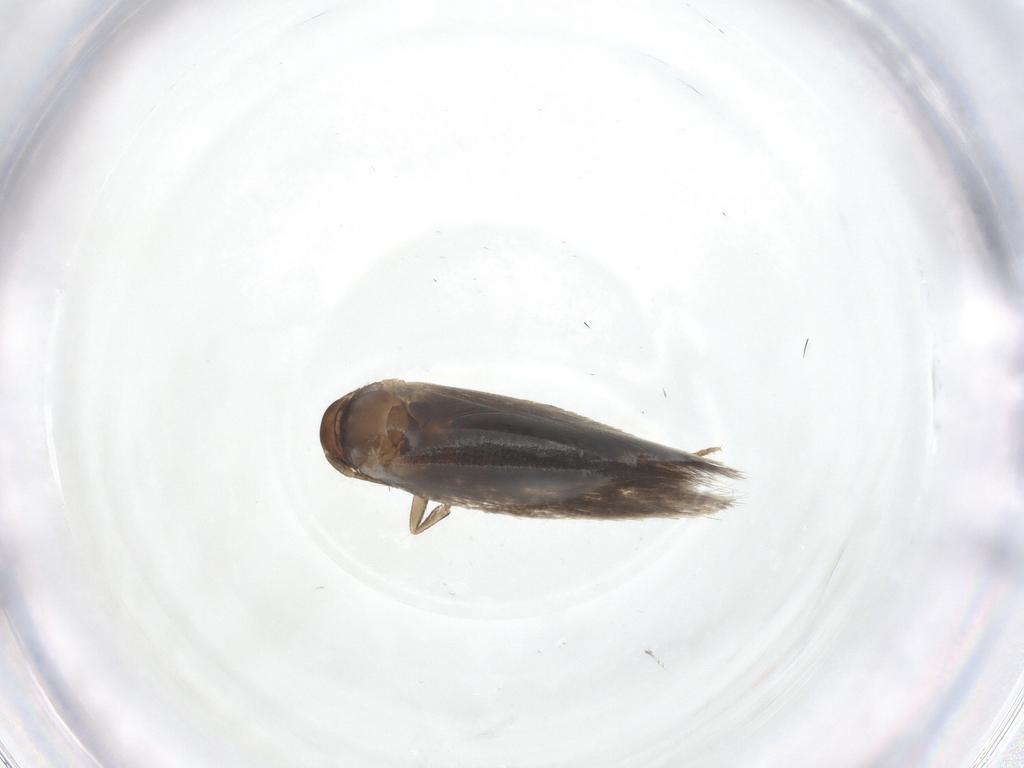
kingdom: Animalia
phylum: Arthropoda
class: Insecta
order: Lepidoptera
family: Elachistidae
